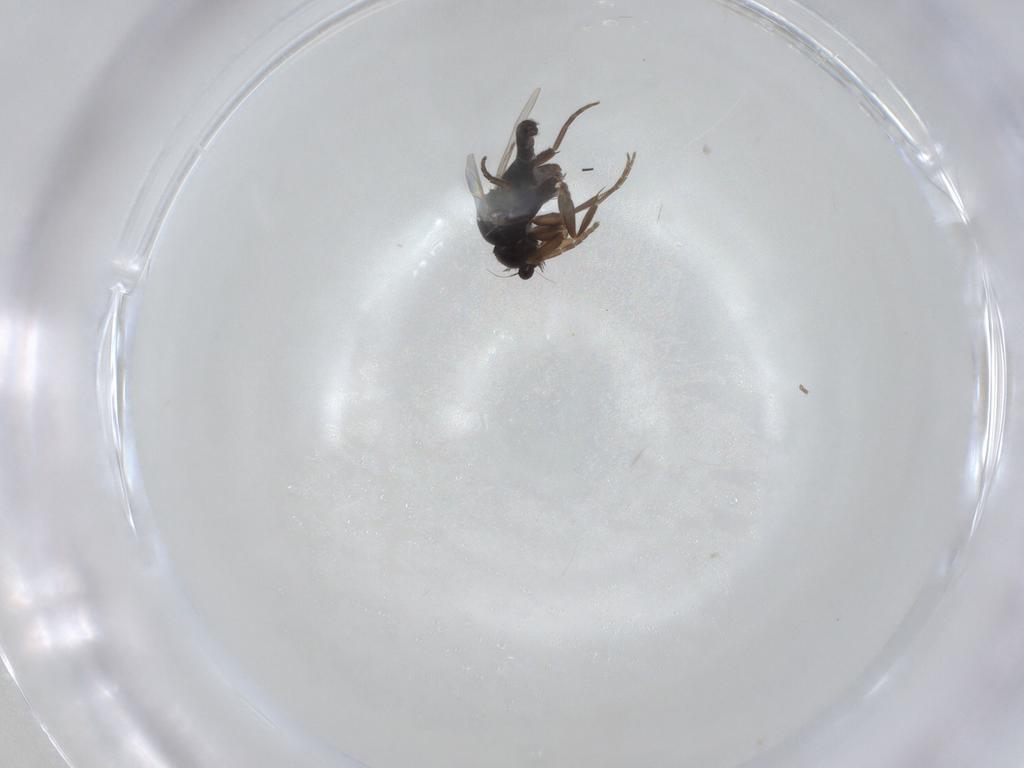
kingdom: Animalia
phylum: Arthropoda
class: Insecta
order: Diptera
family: Phoridae
